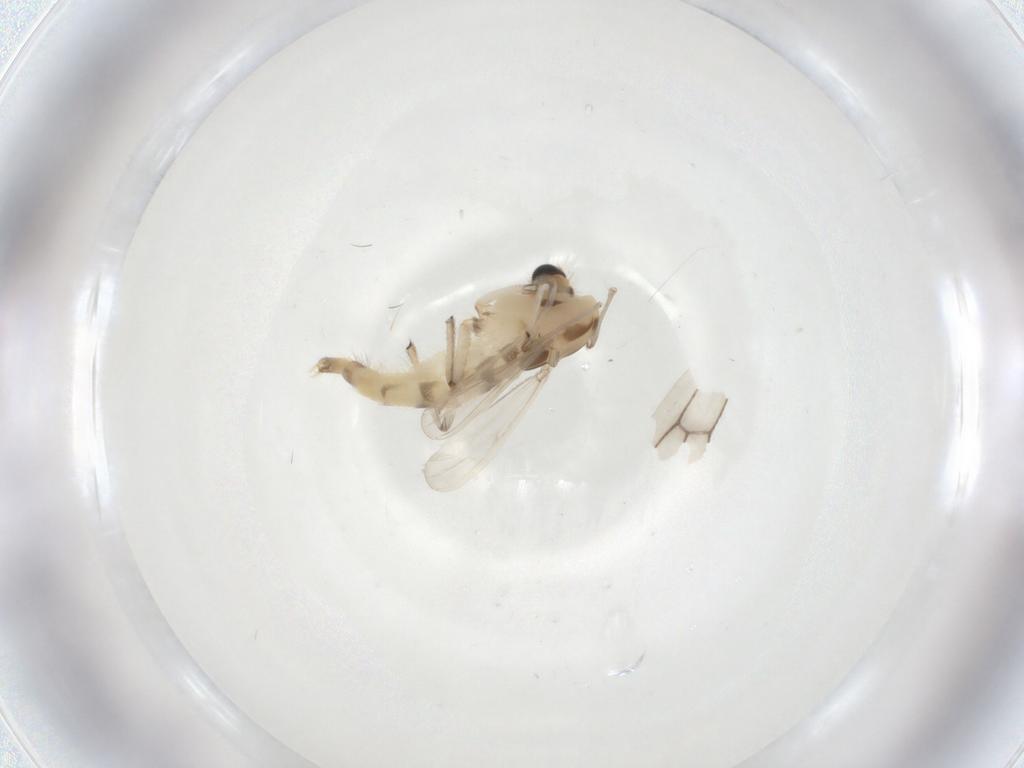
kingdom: Animalia
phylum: Arthropoda
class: Insecta
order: Diptera
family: Chironomidae
